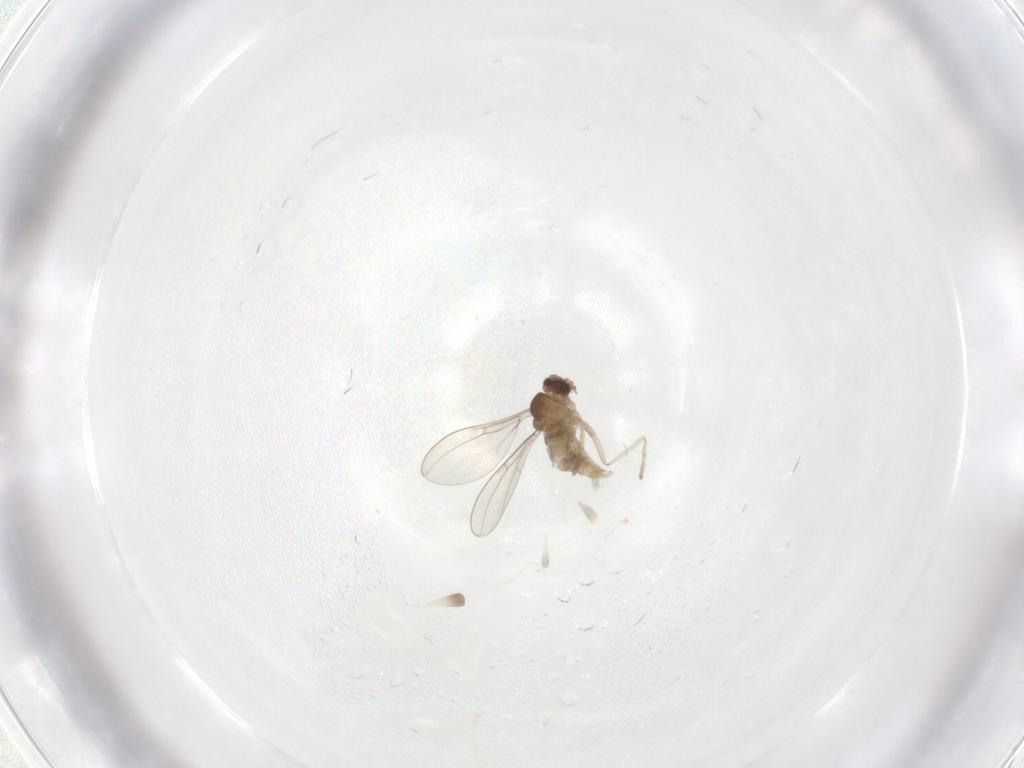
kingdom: Animalia
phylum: Arthropoda
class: Insecta
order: Diptera
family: Cecidomyiidae
